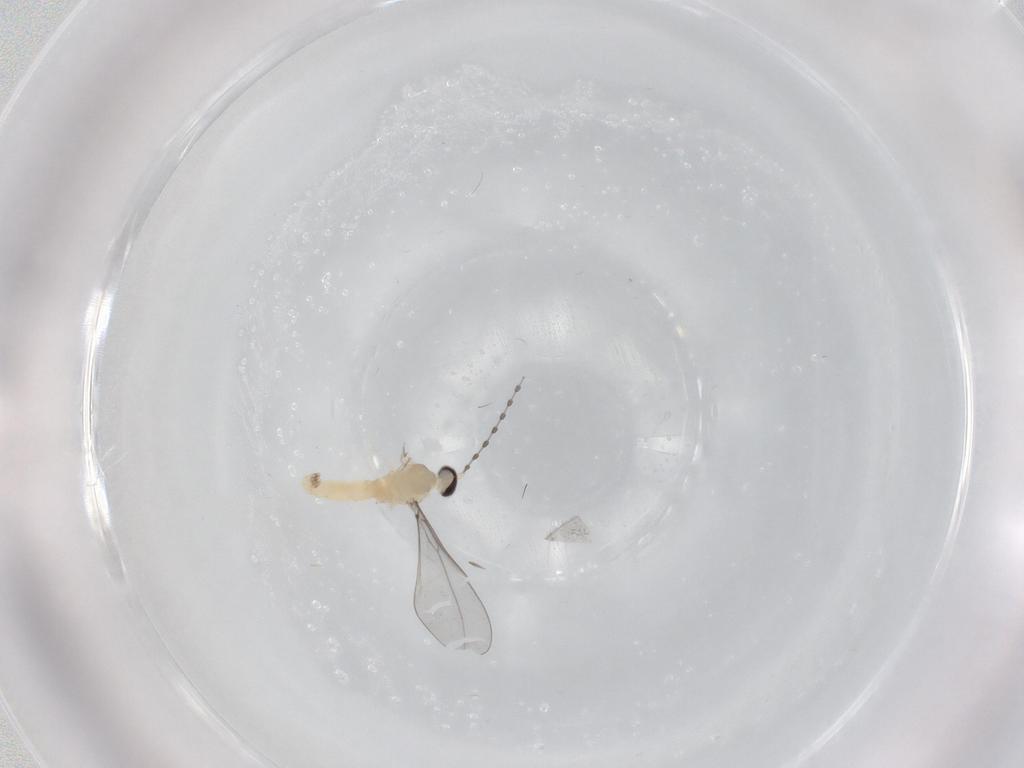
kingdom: Animalia
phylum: Arthropoda
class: Insecta
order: Diptera
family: Cecidomyiidae
